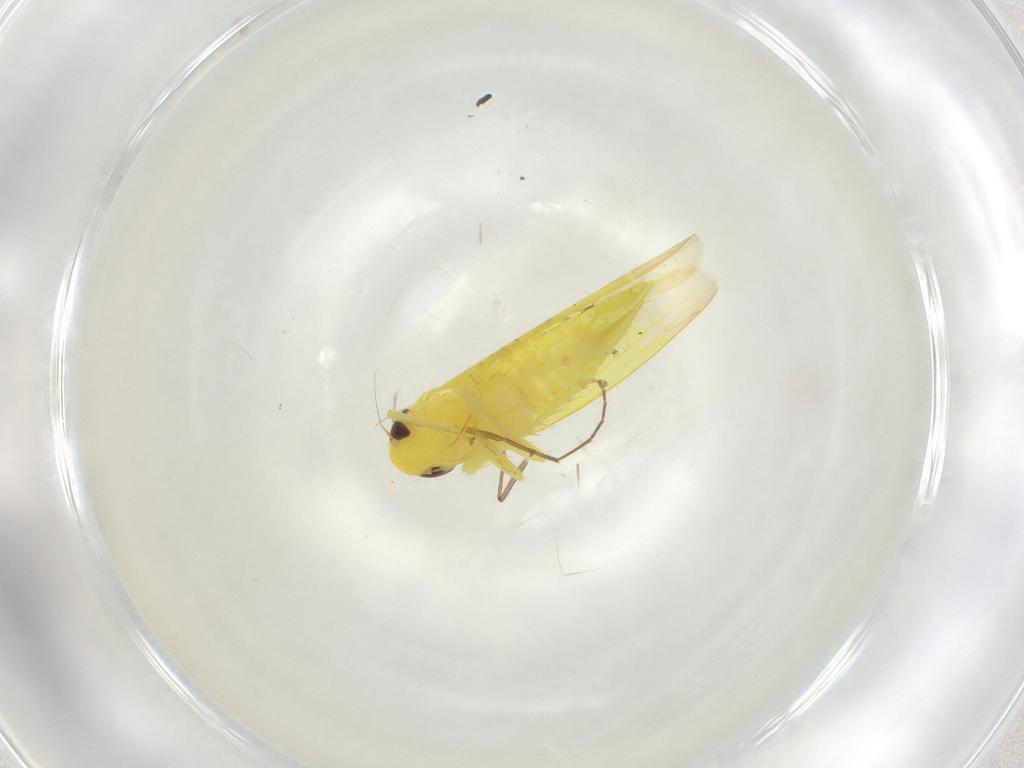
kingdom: Animalia
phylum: Arthropoda
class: Insecta
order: Hemiptera
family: Cicadellidae
